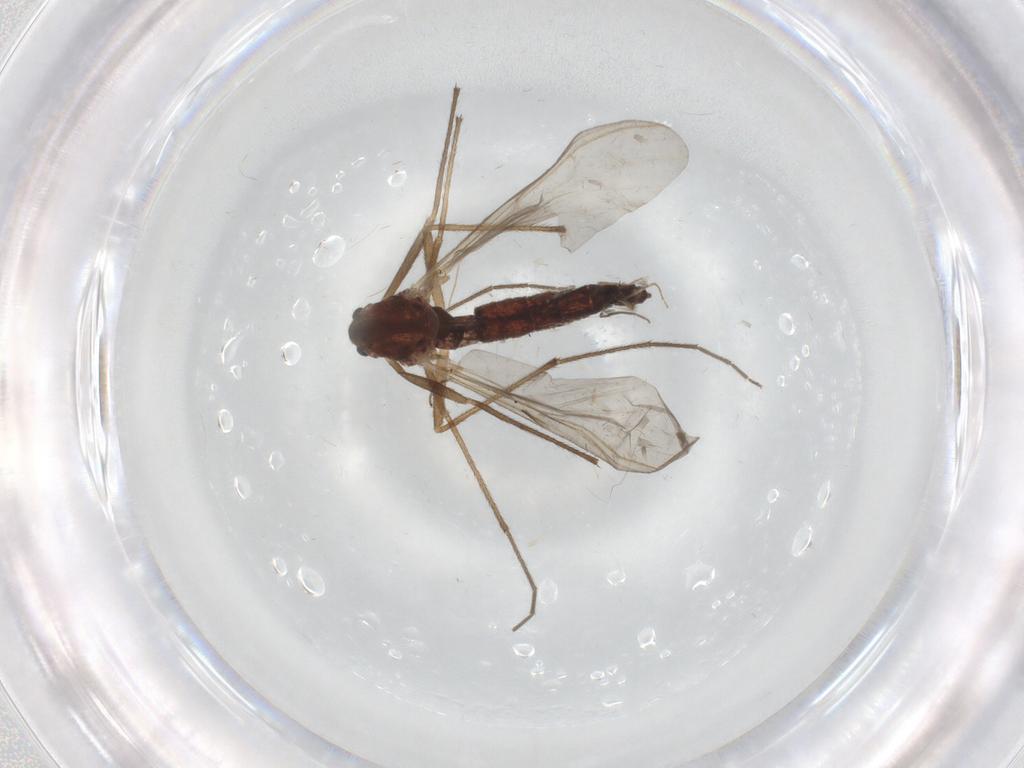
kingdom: Animalia
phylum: Arthropoda
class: Insecta
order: Diptera
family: Chironomidae
